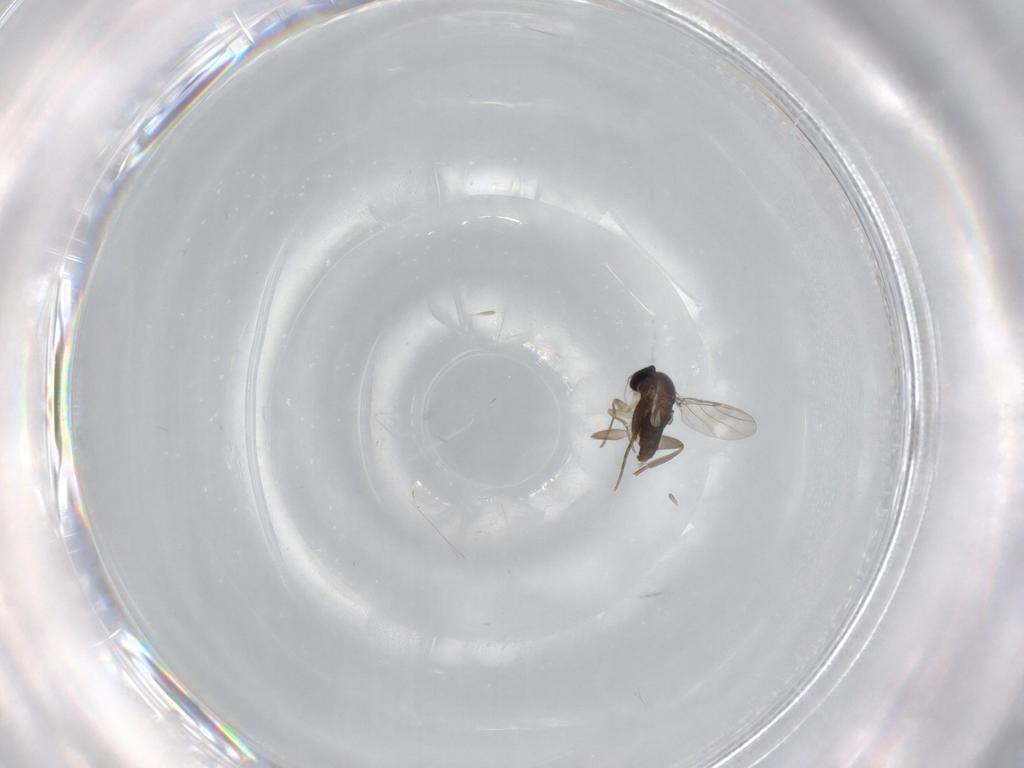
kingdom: Animalia
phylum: Arthropoda
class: Insecta
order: Diptera
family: Phoridae
